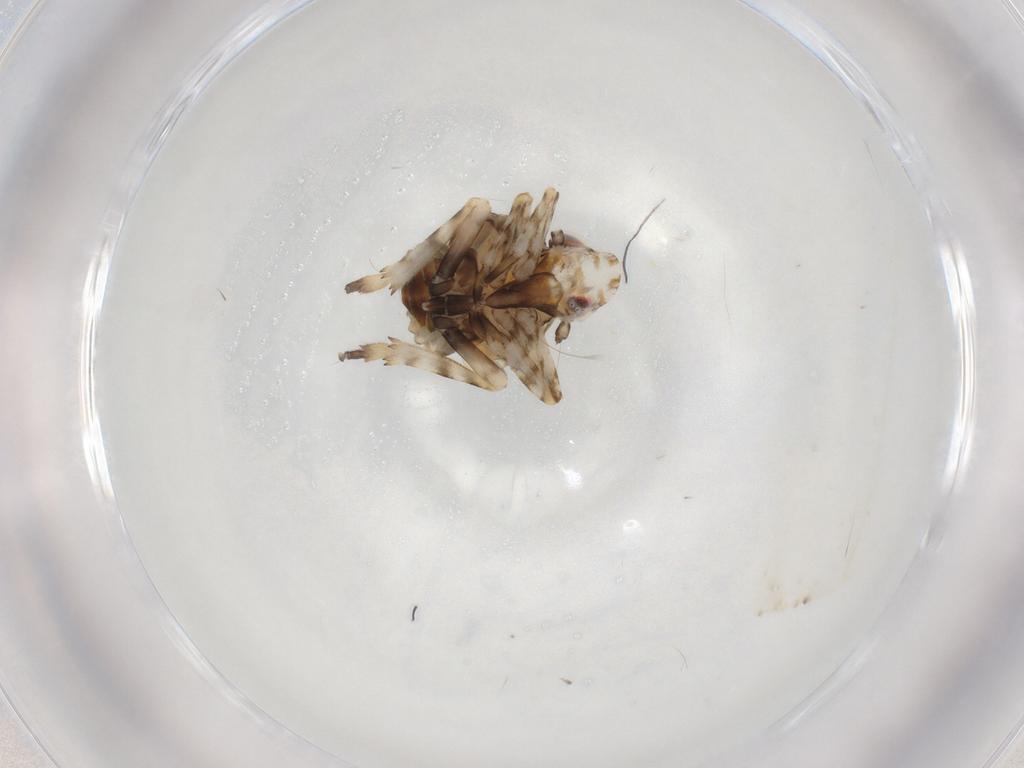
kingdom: Animalia
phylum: Arthropoda
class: Insecta
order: Hemiptera
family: Eurybrachidae
